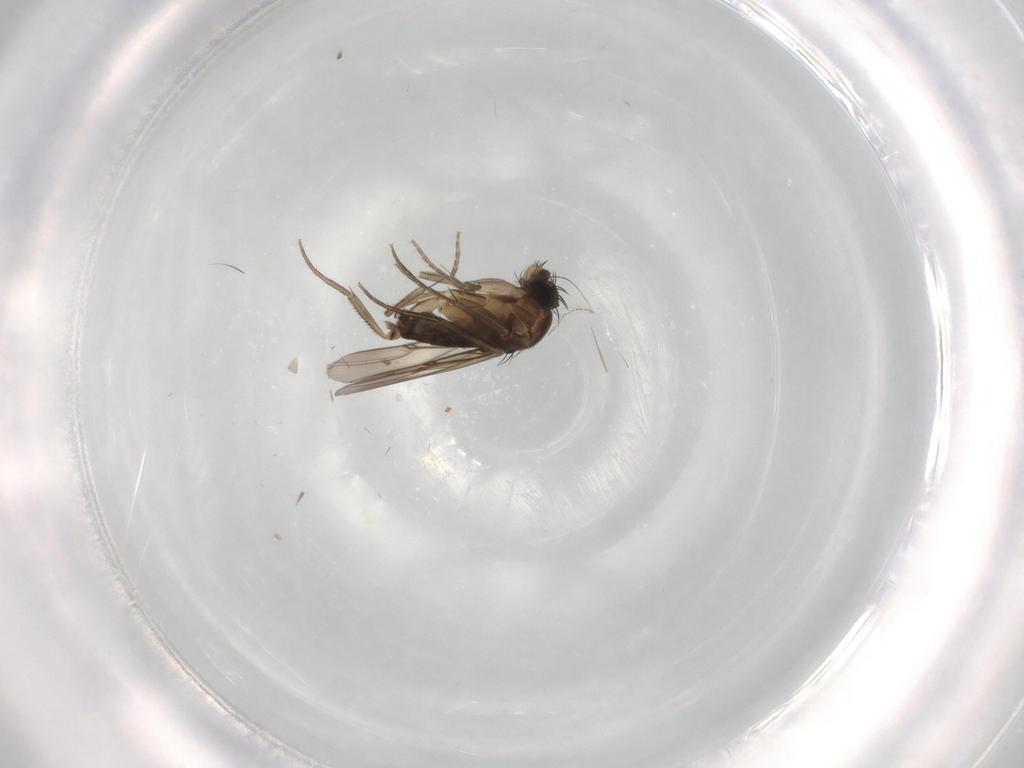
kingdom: Animalia
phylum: Arthropoda
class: Insecta
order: Diptera
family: Phoridae
